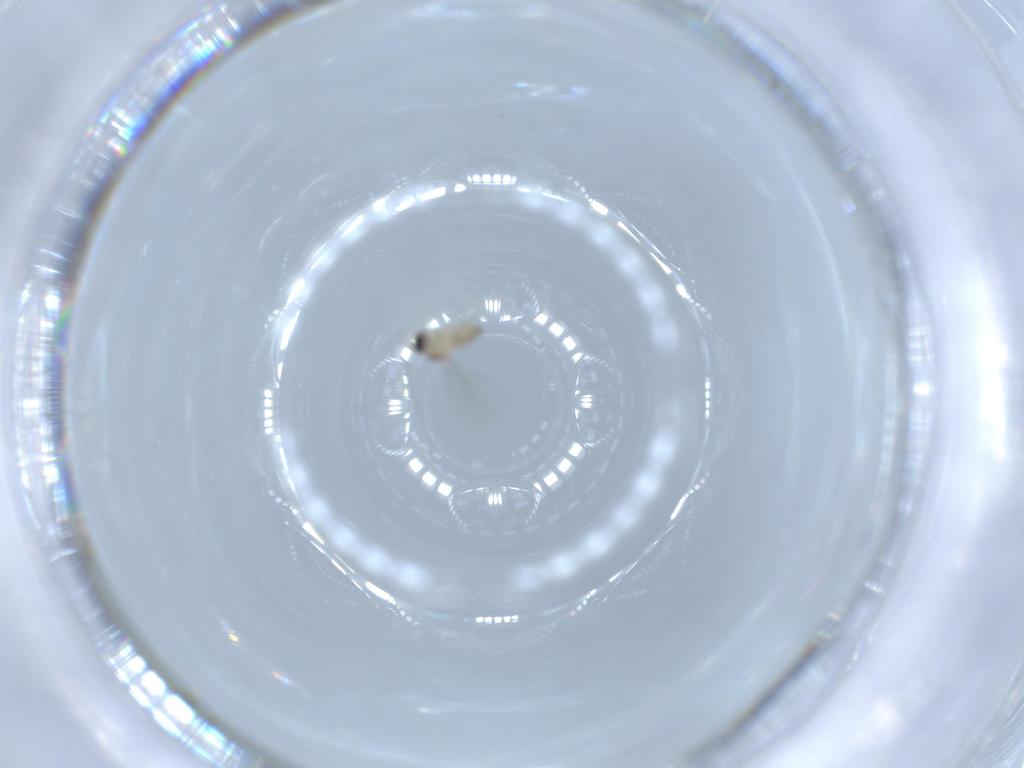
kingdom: Animalia
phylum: Arthropoda
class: Insecta
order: Diptera
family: Cecidomyiidae
